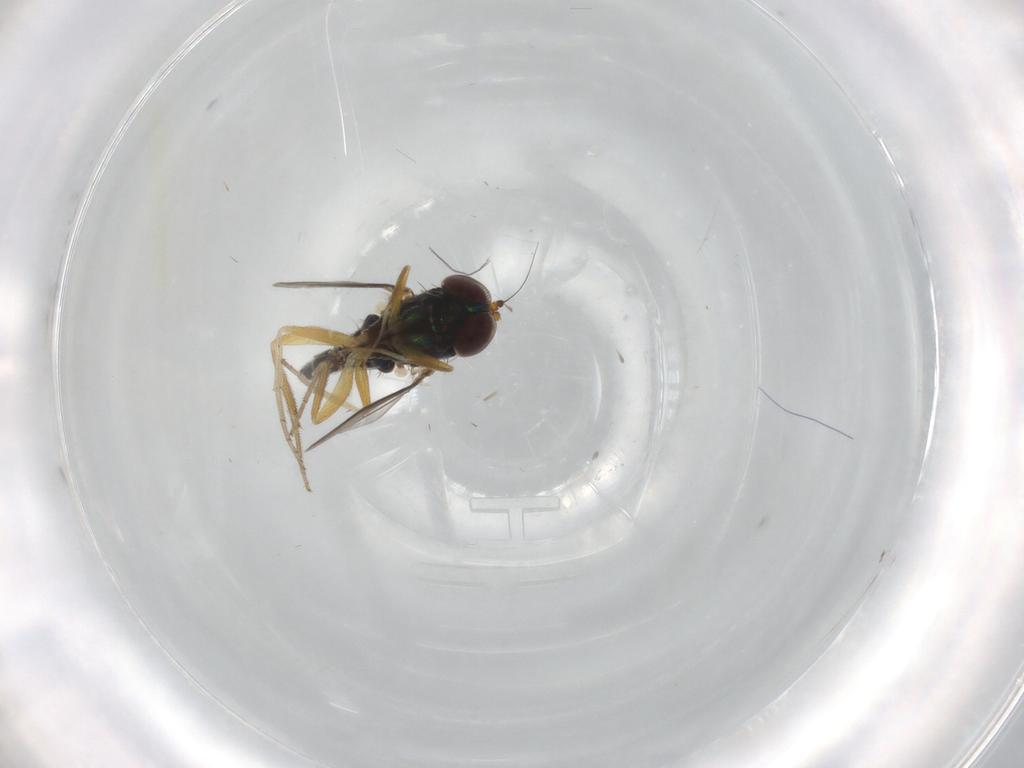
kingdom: Animalia
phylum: Arthropoda
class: Insecta
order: Diptera
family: Dolichopodidae
